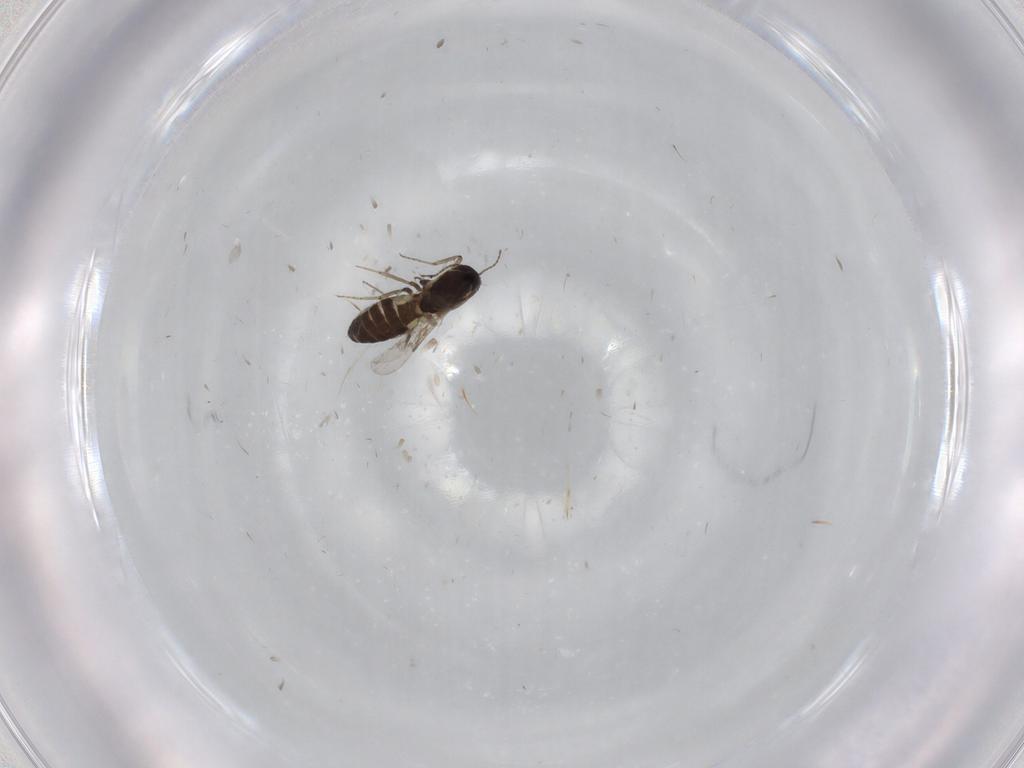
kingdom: Animalia
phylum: Arthropoda
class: Insecta
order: Diptera
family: Ceratopogonidae
